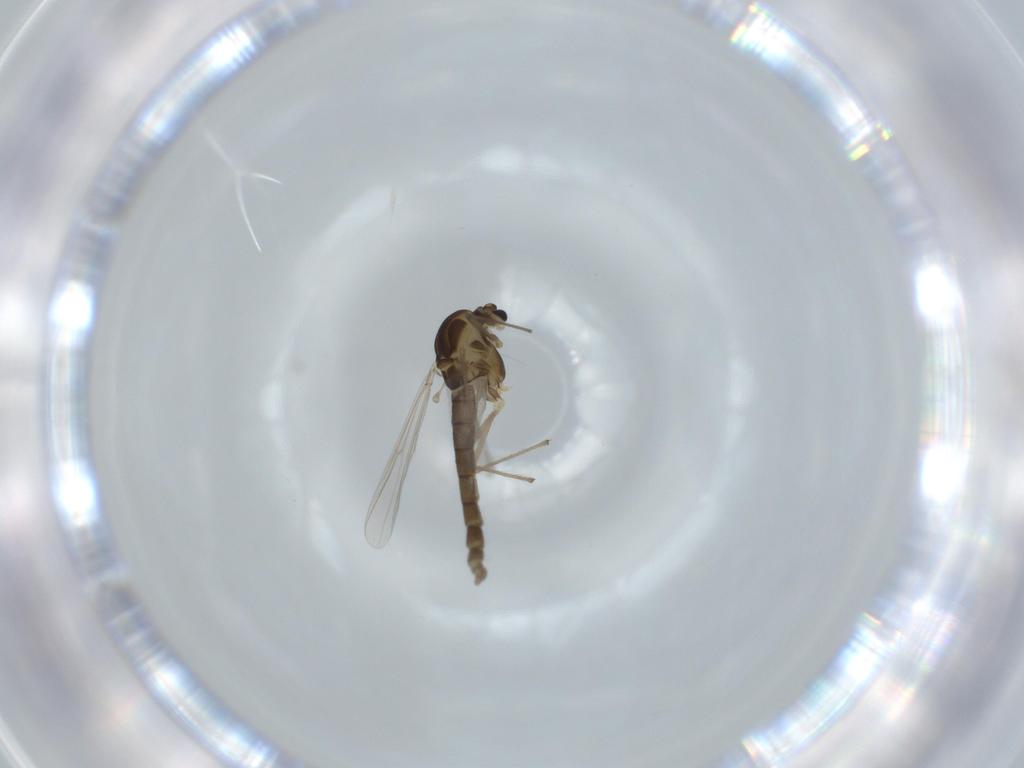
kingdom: Animalia
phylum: Arthropoda
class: Insecta
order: Diptera
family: Chironomidae
